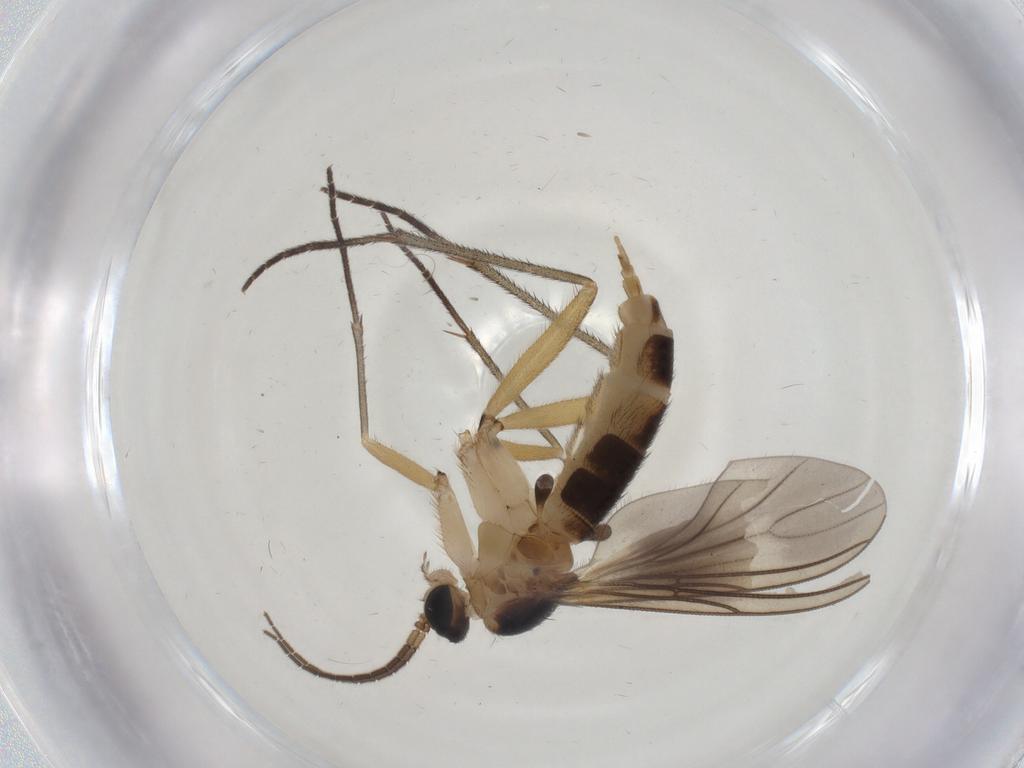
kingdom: Animalia
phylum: Arthropoda
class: Insecta
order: Diptera
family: Sciaridae
